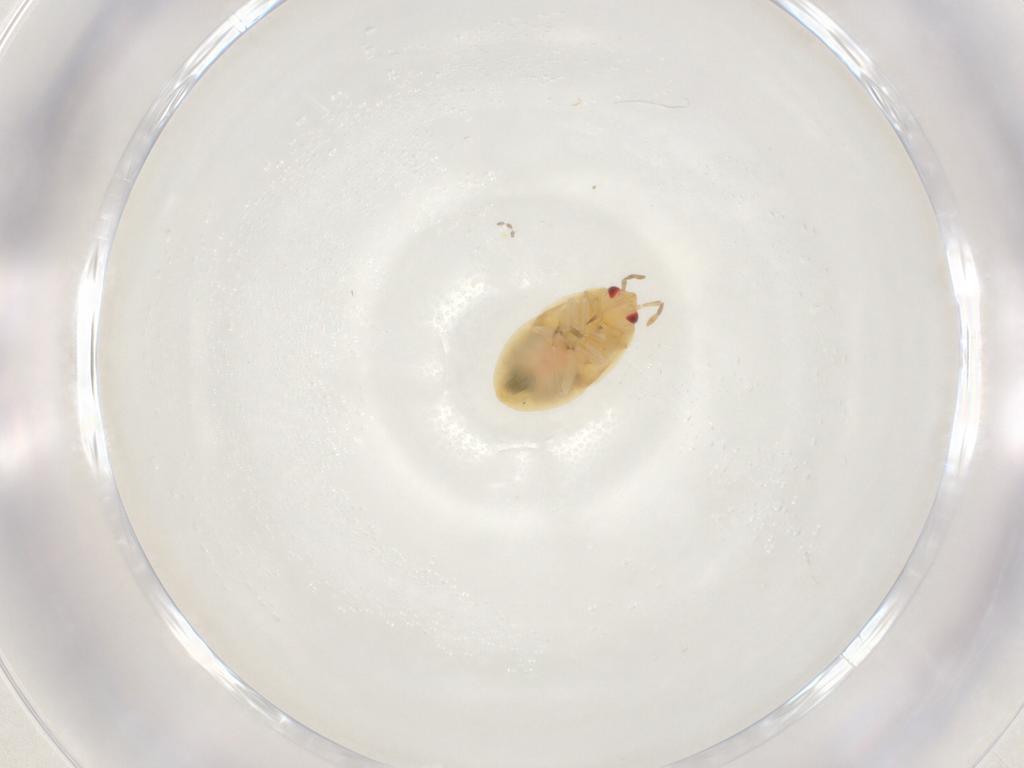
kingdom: Animalia
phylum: Arthropoda
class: Insecta
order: Hemiptera
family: Anthocoridae
